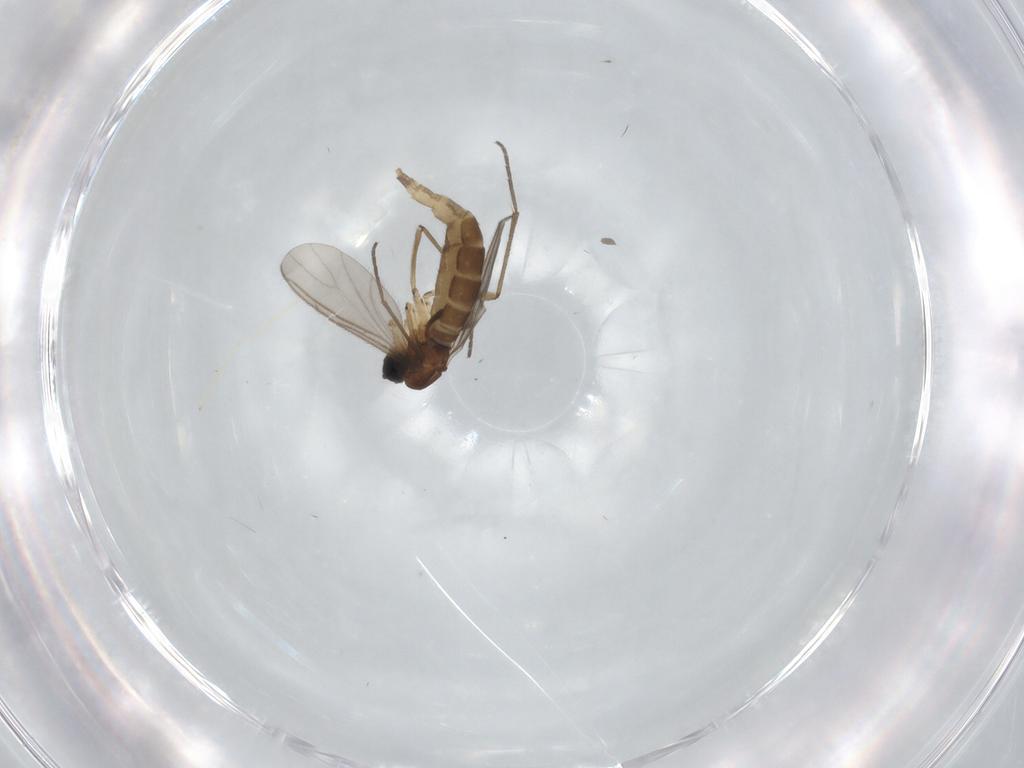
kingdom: Animalia
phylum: Arthropoda
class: Insecta
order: Diptera
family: Sciaridae
